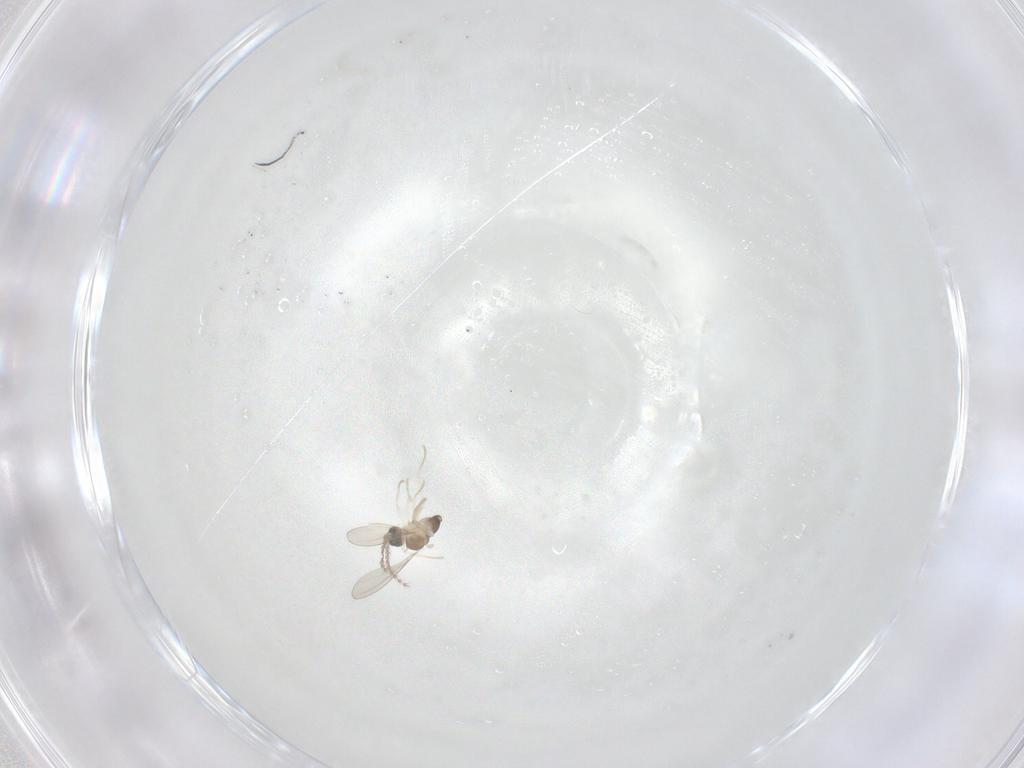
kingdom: Animalia
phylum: Arthropoda
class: Insecta
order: Diptera
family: Cecidomyiidae
